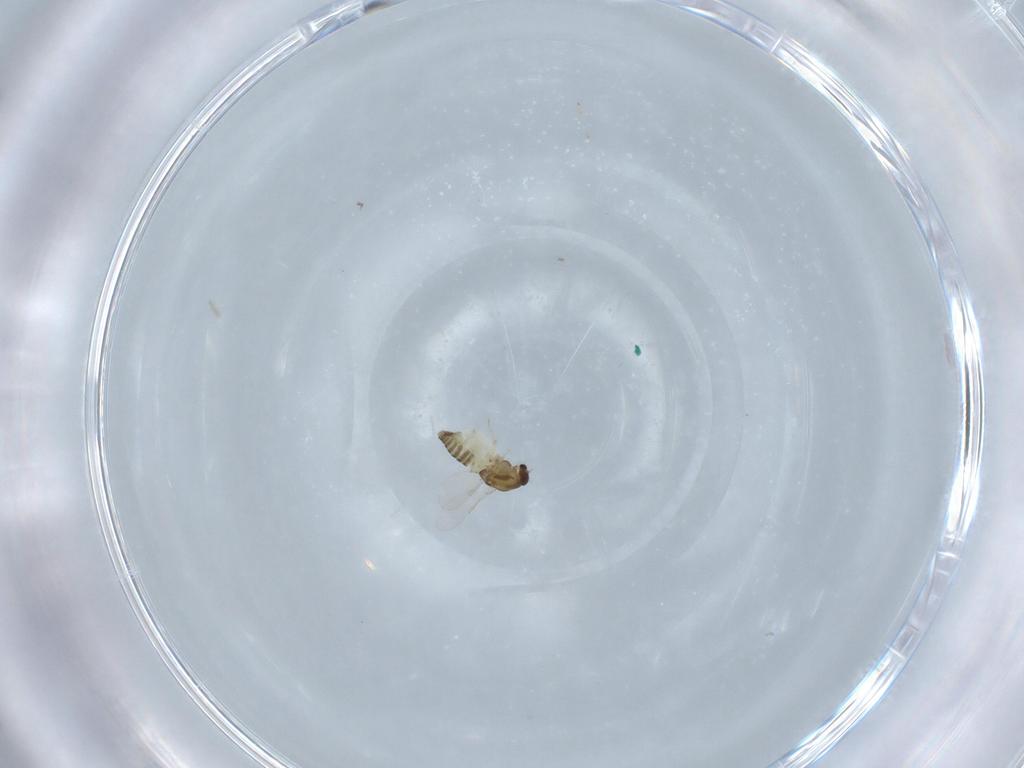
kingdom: Animalia
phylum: Arthropoda
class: Insecta
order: Diptera
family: Chironomidae
